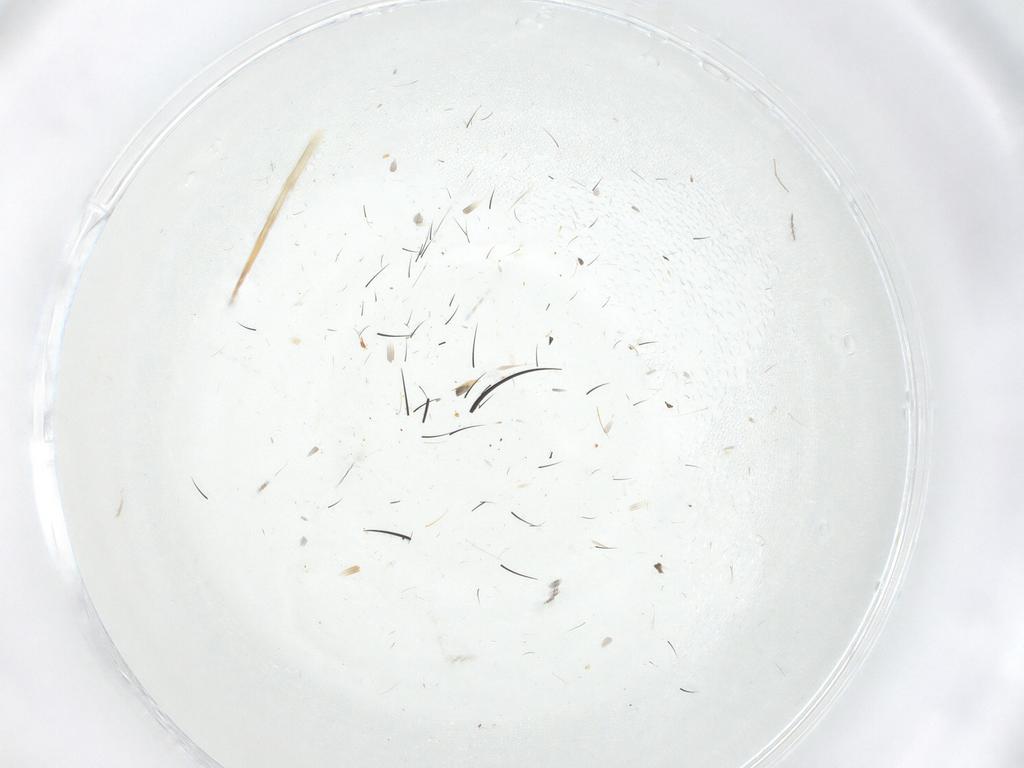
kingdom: Animalia
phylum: Arthropoda
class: Insecta
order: Diptera
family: Muscidae
